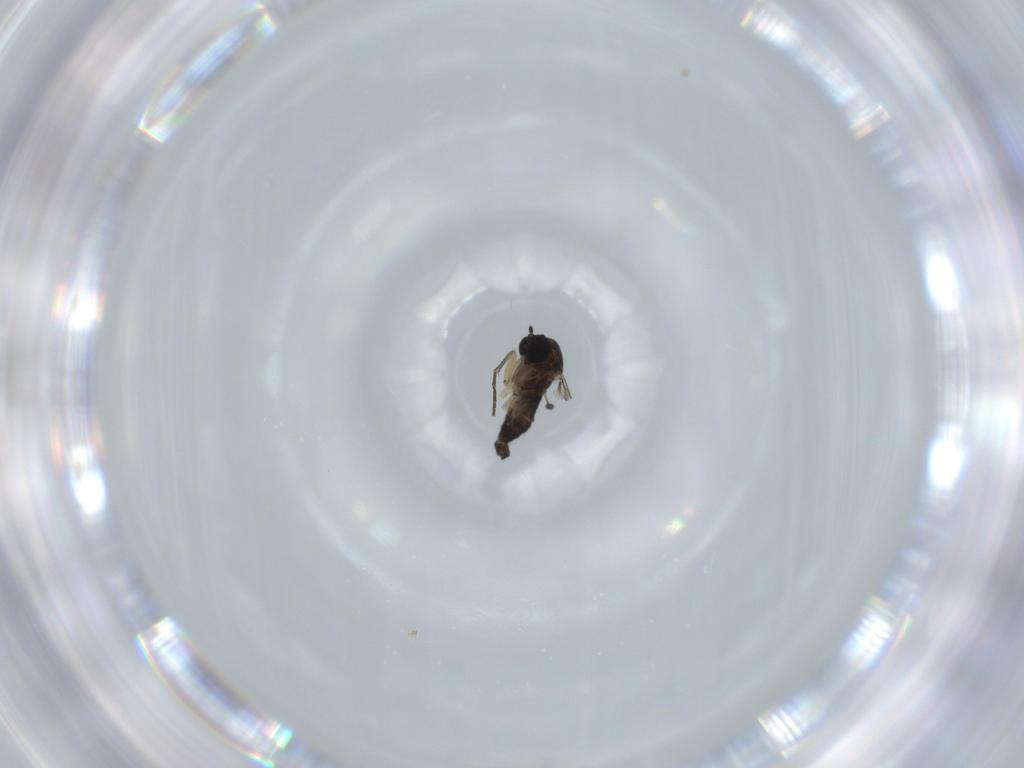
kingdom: Animalia
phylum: Arthropoda
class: Insecta
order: Diptera
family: Sciaridae
